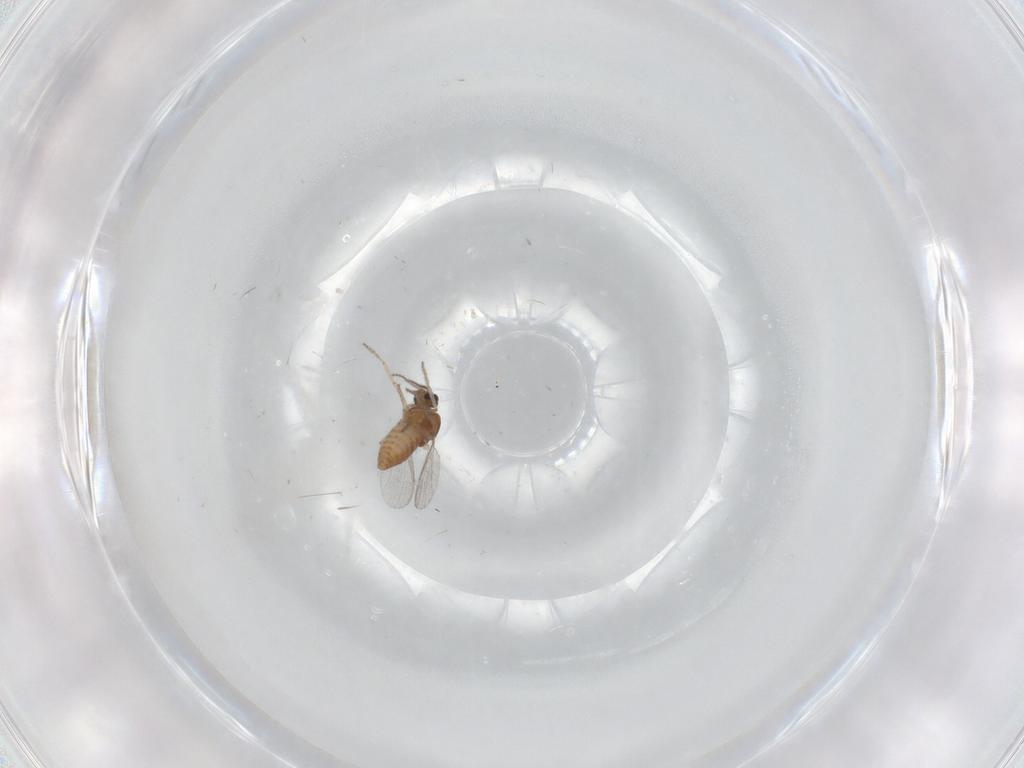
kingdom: Animalia
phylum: Arthropoda
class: Insecta
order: Diptera
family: Ceratopogonidae
